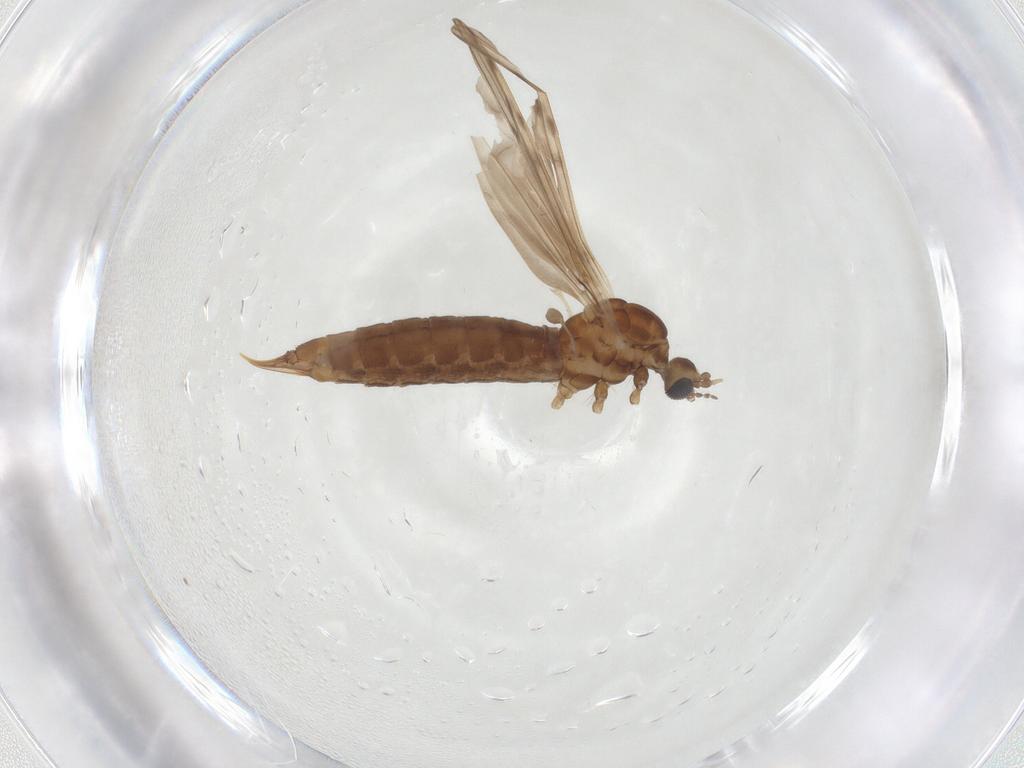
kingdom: Animalia
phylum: Arthropoda
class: Insecta
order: Diptera
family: Limoniidae
